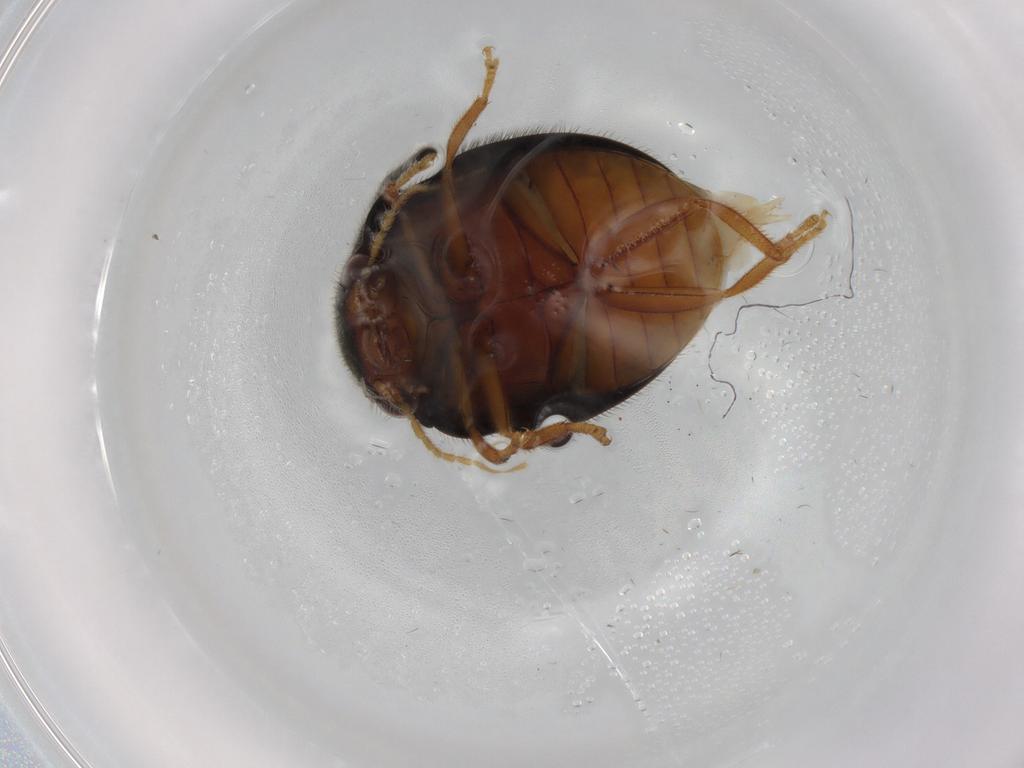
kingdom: Animalia
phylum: Arthropoda
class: Insecta
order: Coleoptera
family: Scirtidae
